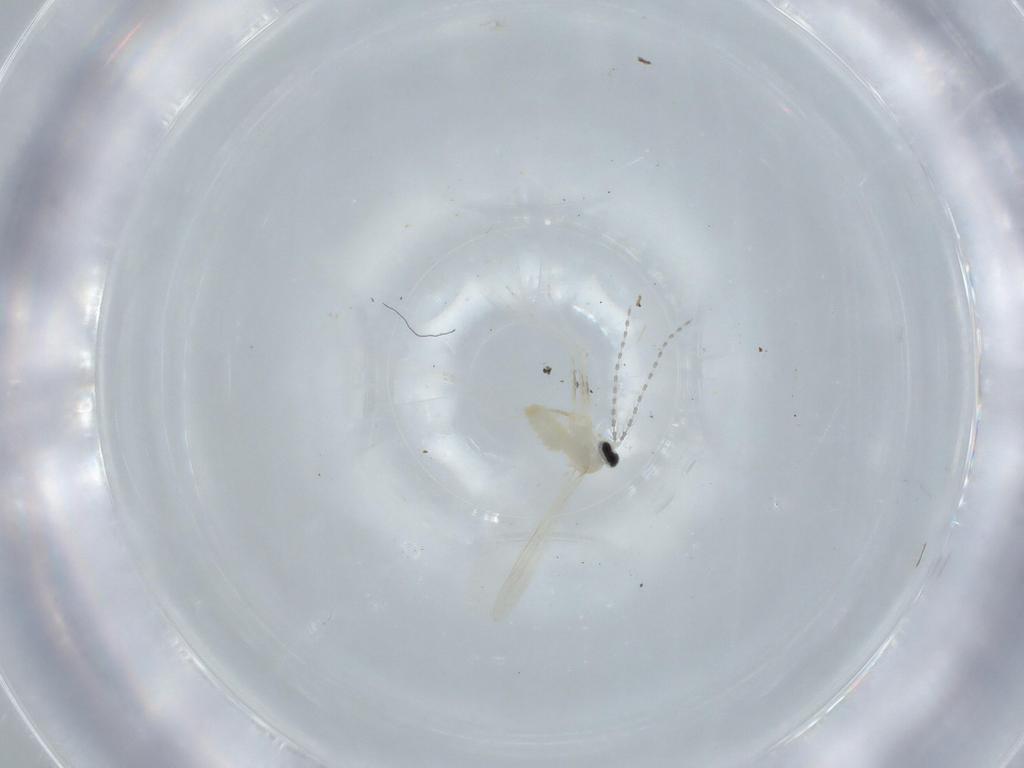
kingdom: Animalia
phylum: Arthropoda
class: Insecta
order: Diptera
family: Cecidomyiidae
